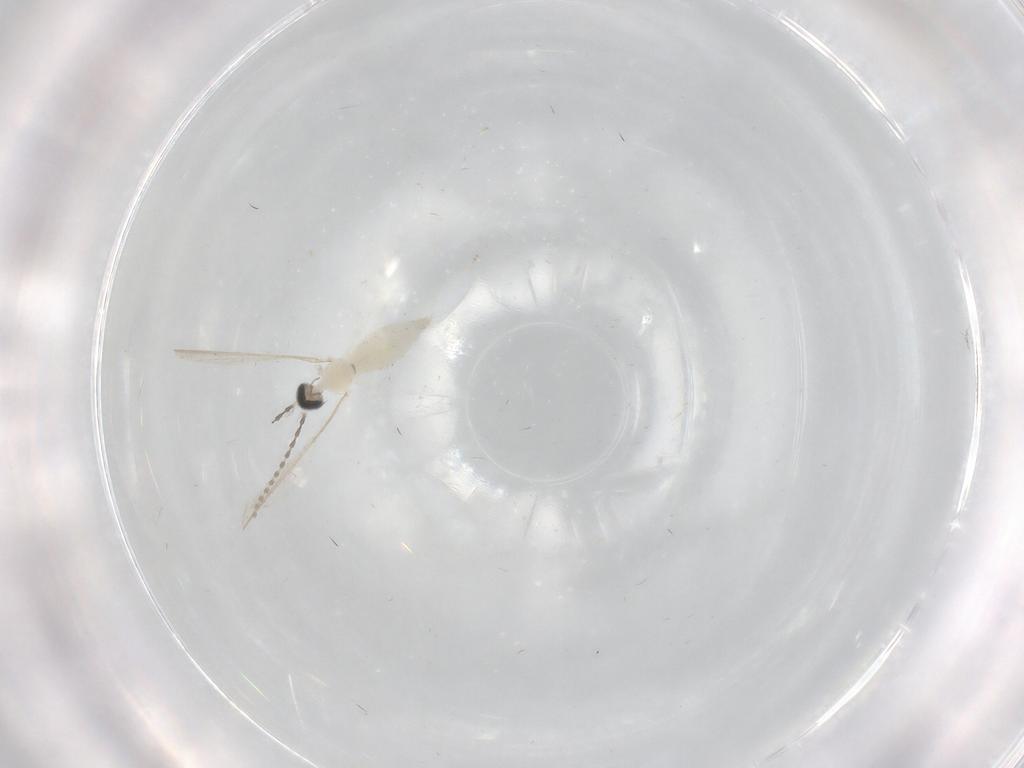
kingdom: Animalia
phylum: Arthropoda
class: Insecta
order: Diptera
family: Cecidomyiidae
